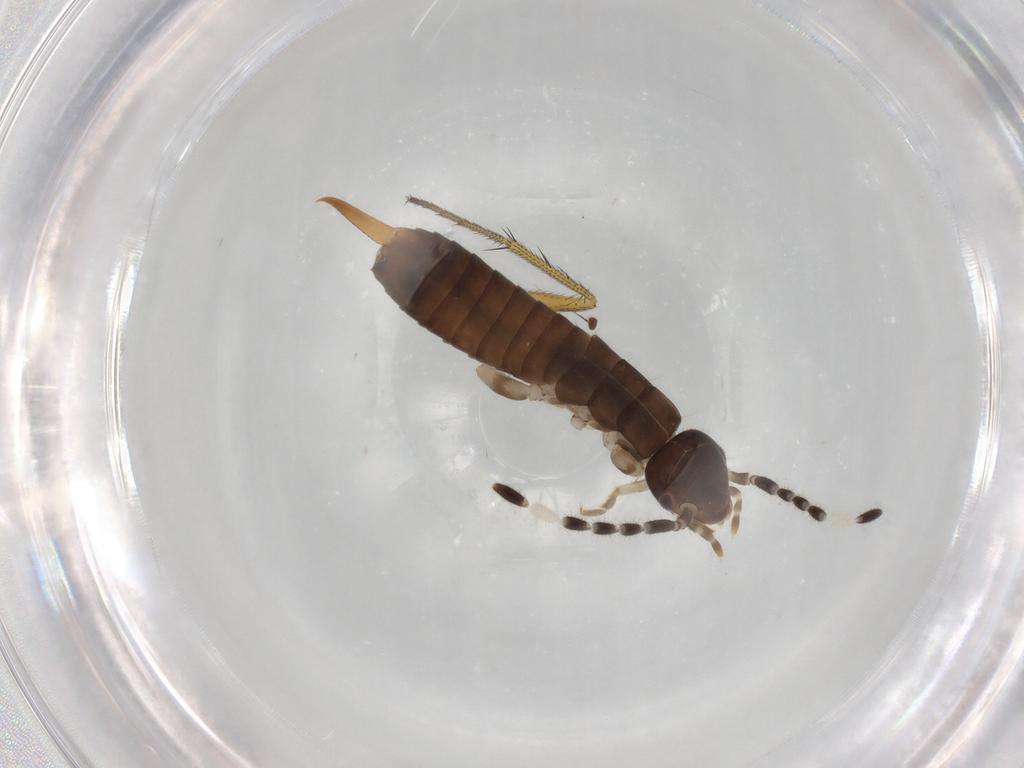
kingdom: Animalia
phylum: Arthropoda
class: Insecta
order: Dermaptera
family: Anisolabididae
